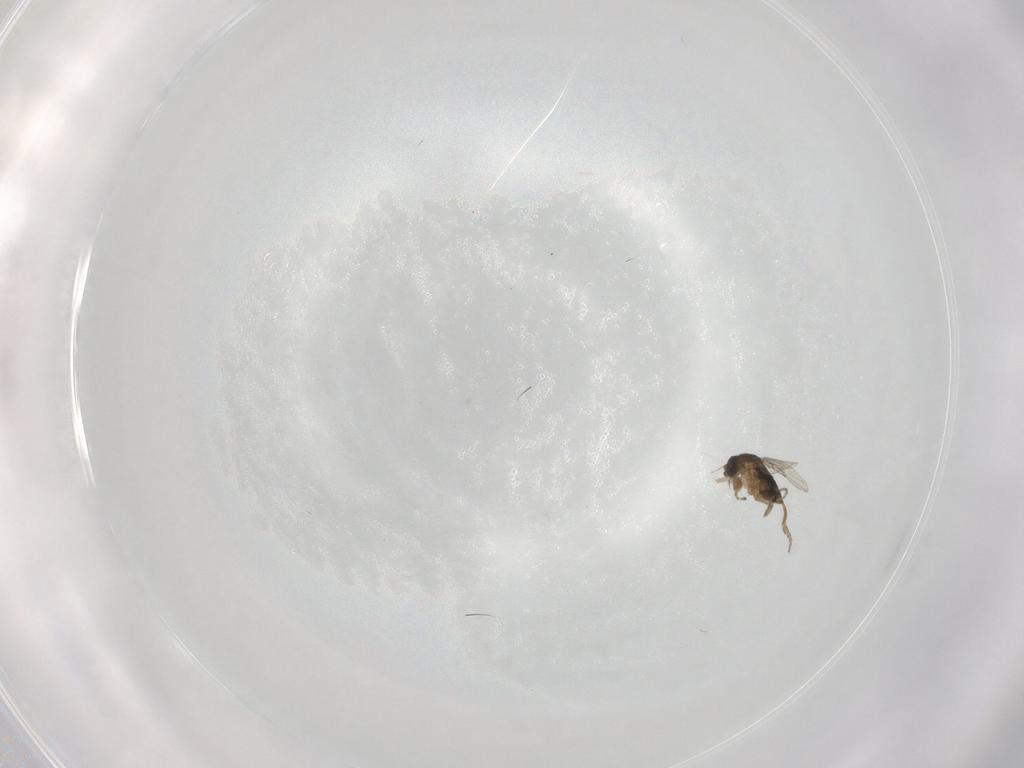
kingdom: Animalia
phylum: Arthropoda
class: Insecta
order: Diptera
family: Phoridae
